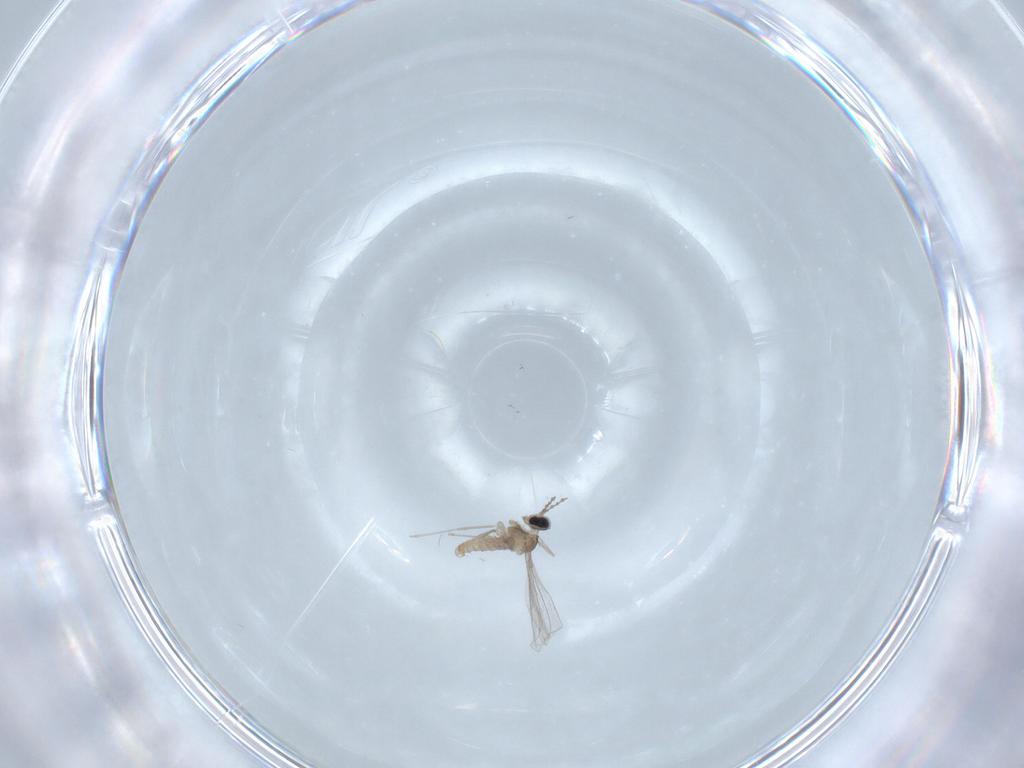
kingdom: Animalia
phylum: Arthropoda
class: Insecta
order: Diptera
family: Cecidomyiidae
